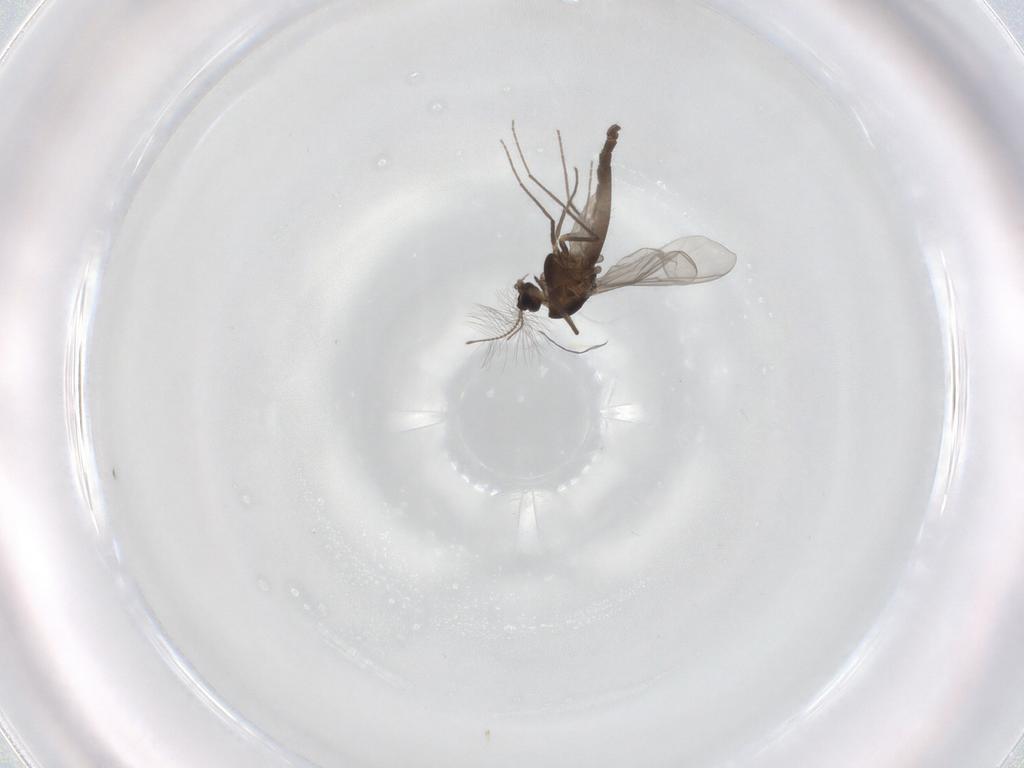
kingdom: Animalia
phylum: Arthropoda
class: Insecta
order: Diptera
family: Chironomidae
